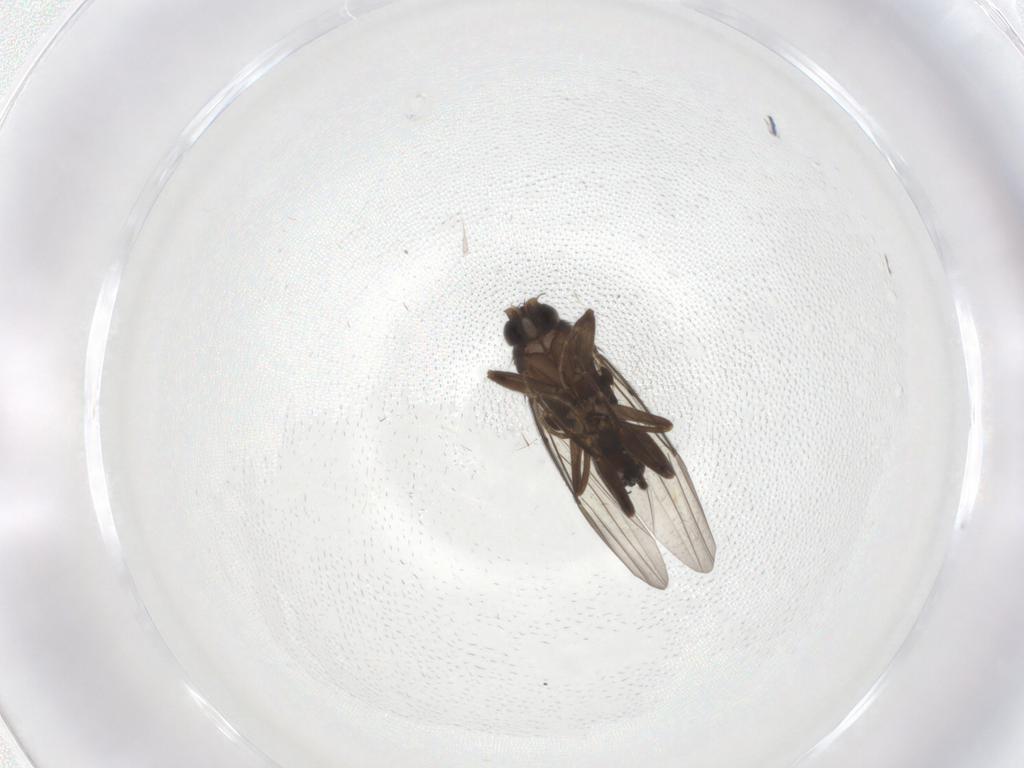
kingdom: Animalia
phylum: Arthropoda
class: Insecta
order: Diptera
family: Phoridae
